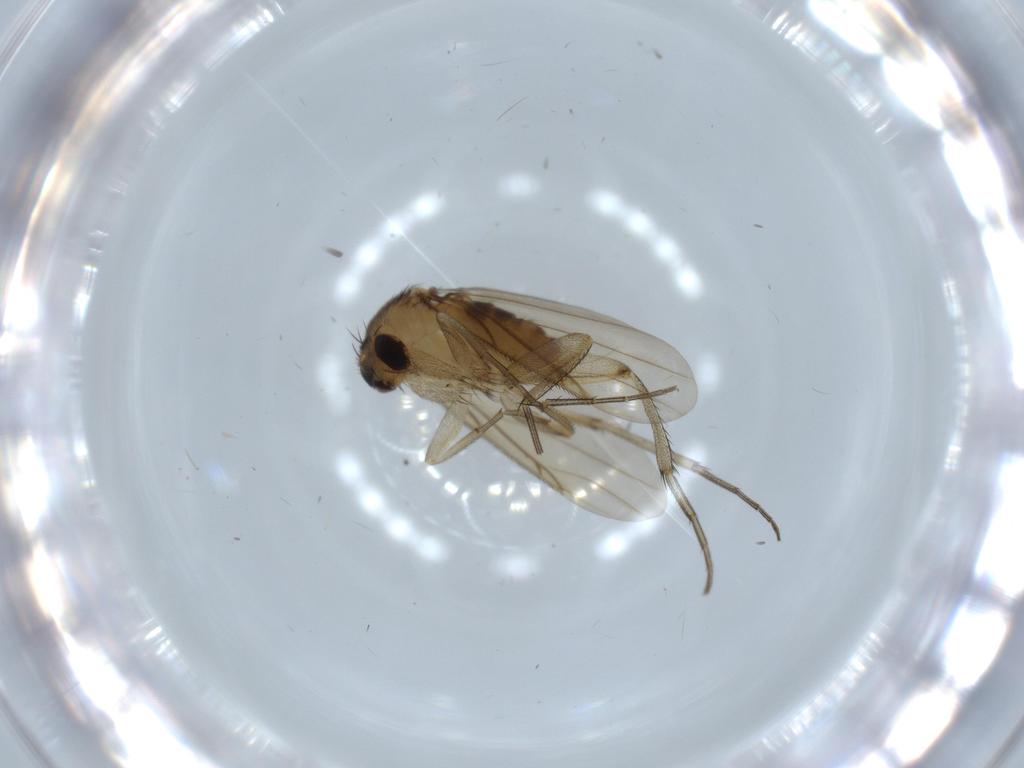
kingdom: Animalia
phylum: Arthropoda
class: Insecta
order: Diptera
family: Phoridae
